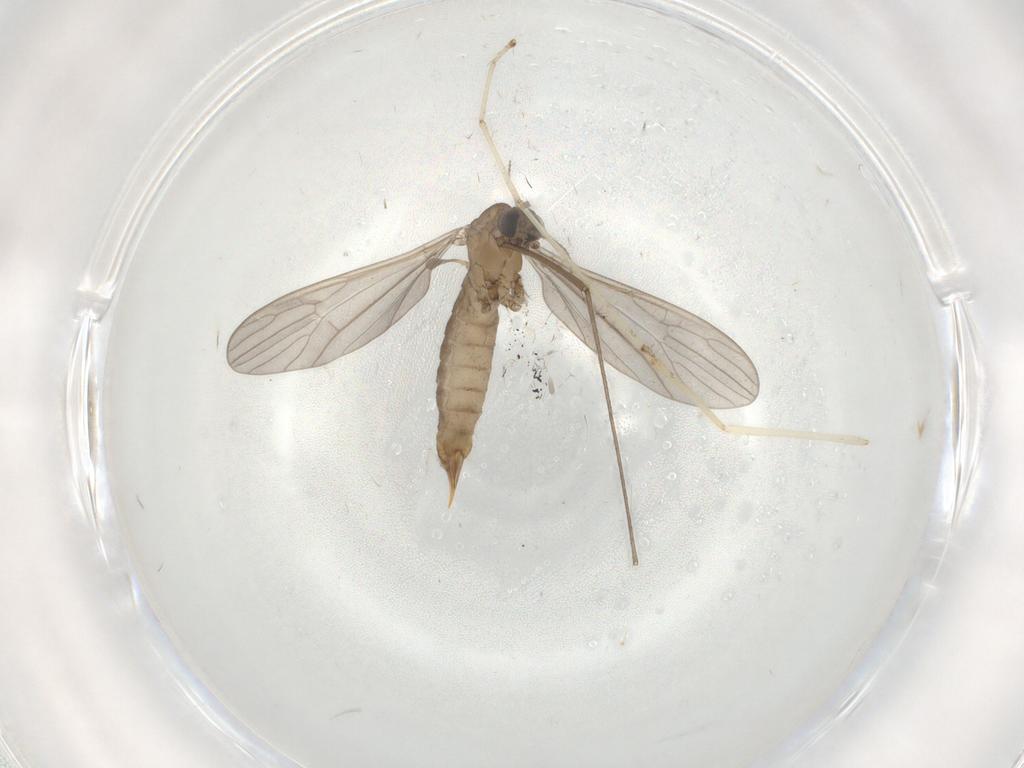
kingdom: Animalia
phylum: Arthropoda
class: Insecta
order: Diptera
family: Limoniidae
